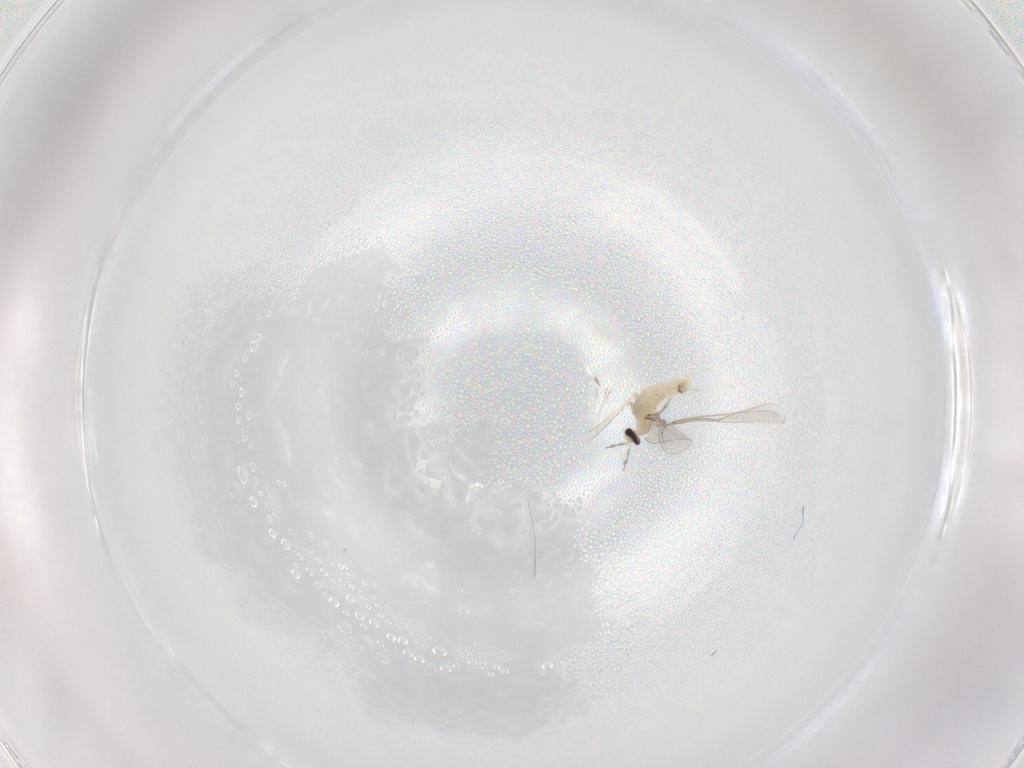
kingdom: Animalia
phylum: Arthropoda
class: Insecta
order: Diptera
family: Cecidomyiidae
